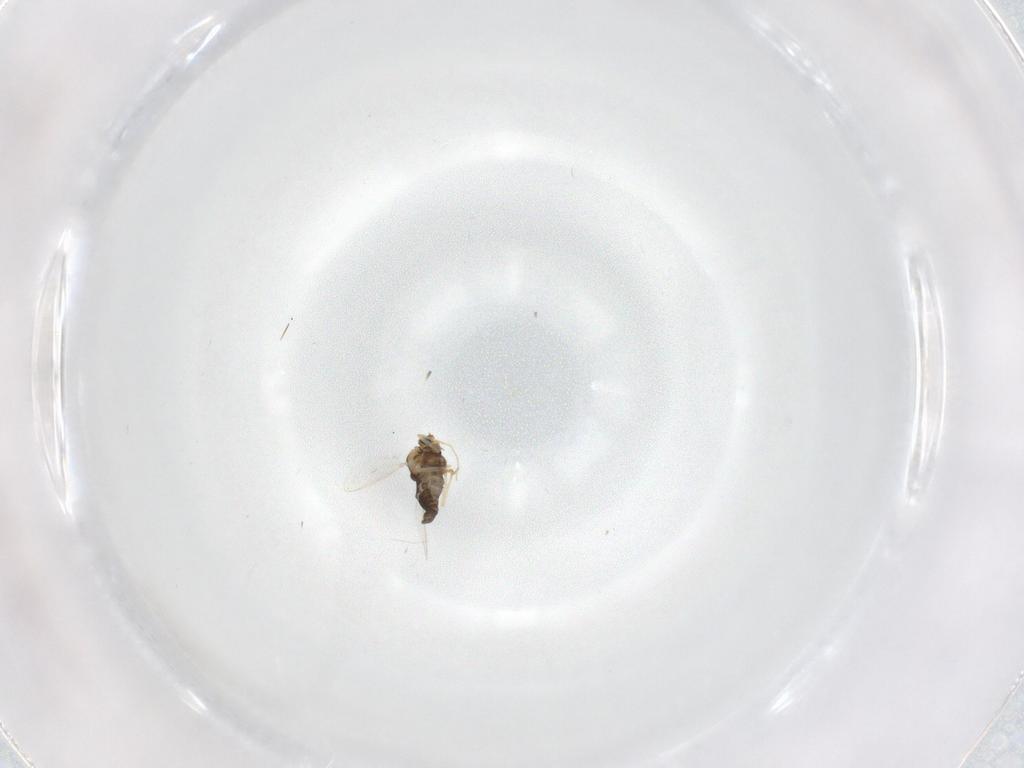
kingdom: Animalia
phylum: Arthropoda
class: Insecta
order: Diptera
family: Chironomidae
